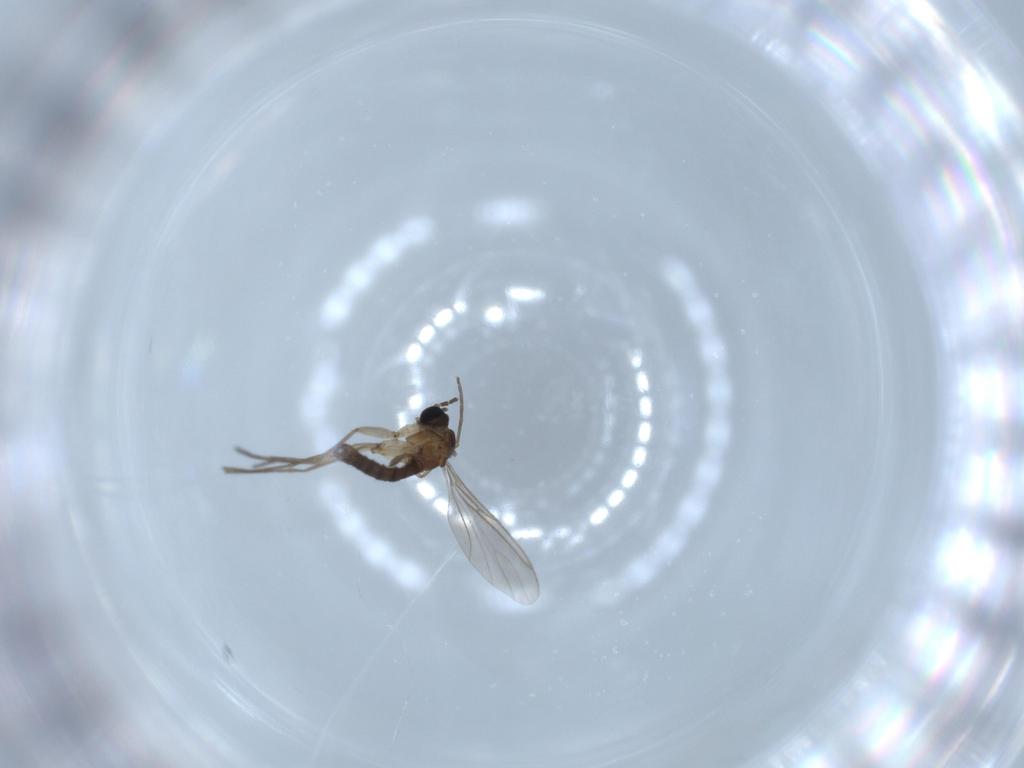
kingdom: Animalia
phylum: Arthropoda
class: Insecta
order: Diptera
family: Sciaridae
